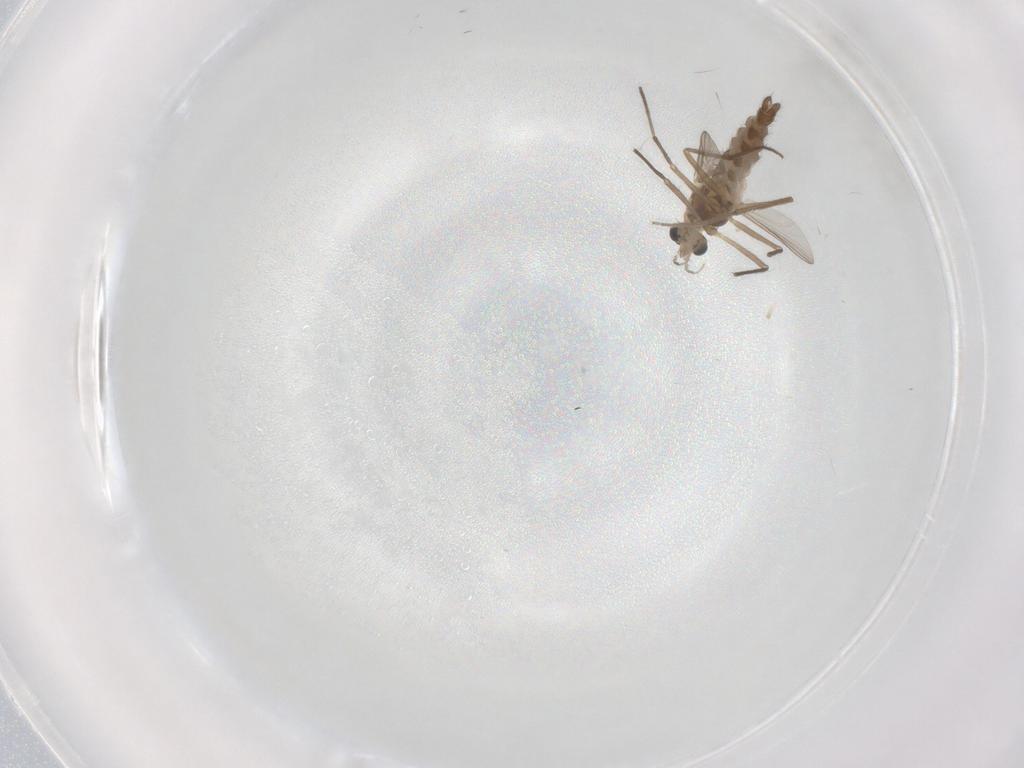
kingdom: Animalia
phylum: Arthropoda
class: Insecta
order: Diptera
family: Chironomidae
